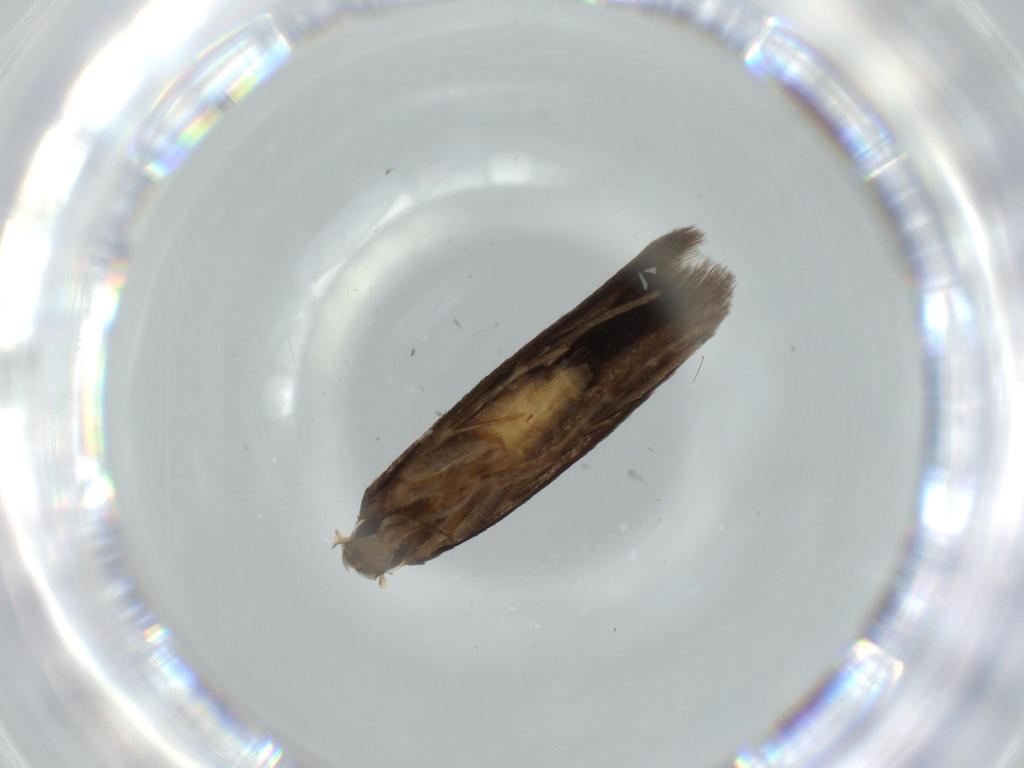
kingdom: Animalia
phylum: Arthropoda
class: Insecta
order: Lepidoptera
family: Cosmopterigidae
